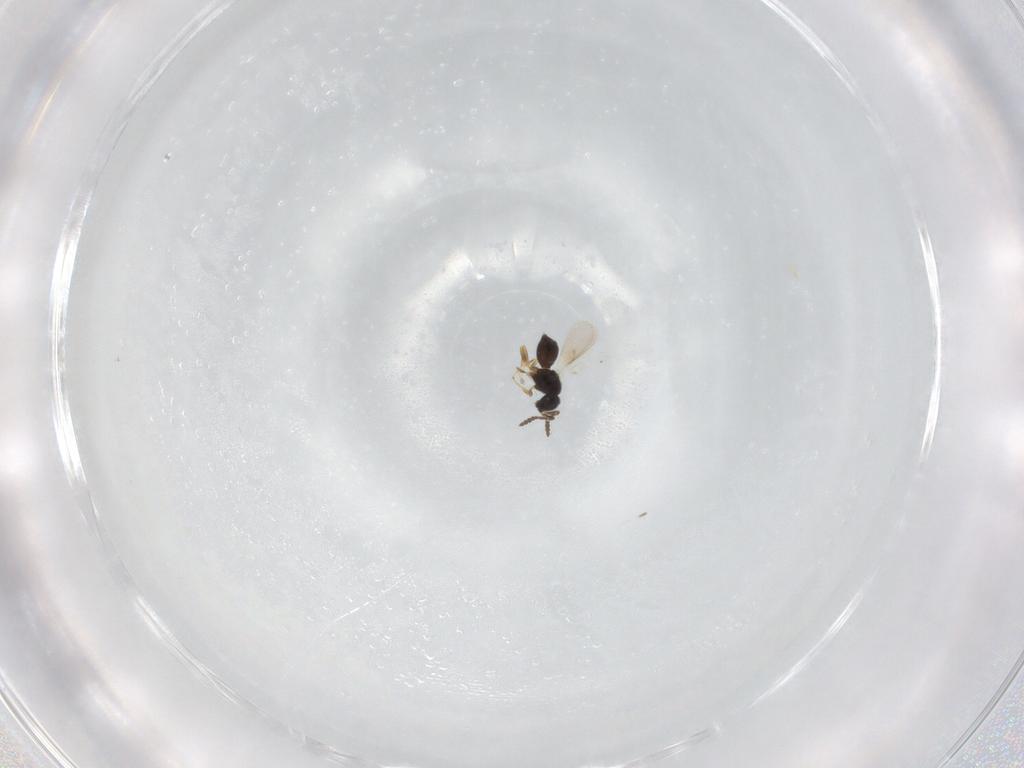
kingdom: Animalia
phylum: Arthropoda
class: Insecta
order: Hymenoptera
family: Scelionidae
